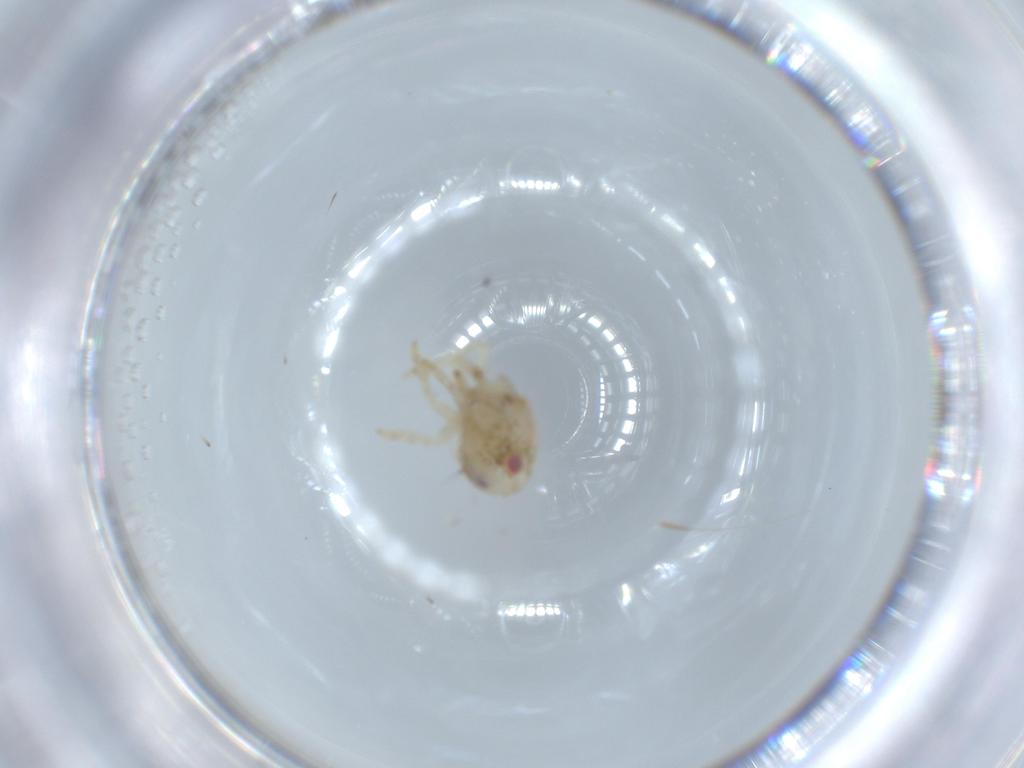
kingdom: Animalia
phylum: Arthropoda
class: Insecta
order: Hemiptera
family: Acanaloniidae
